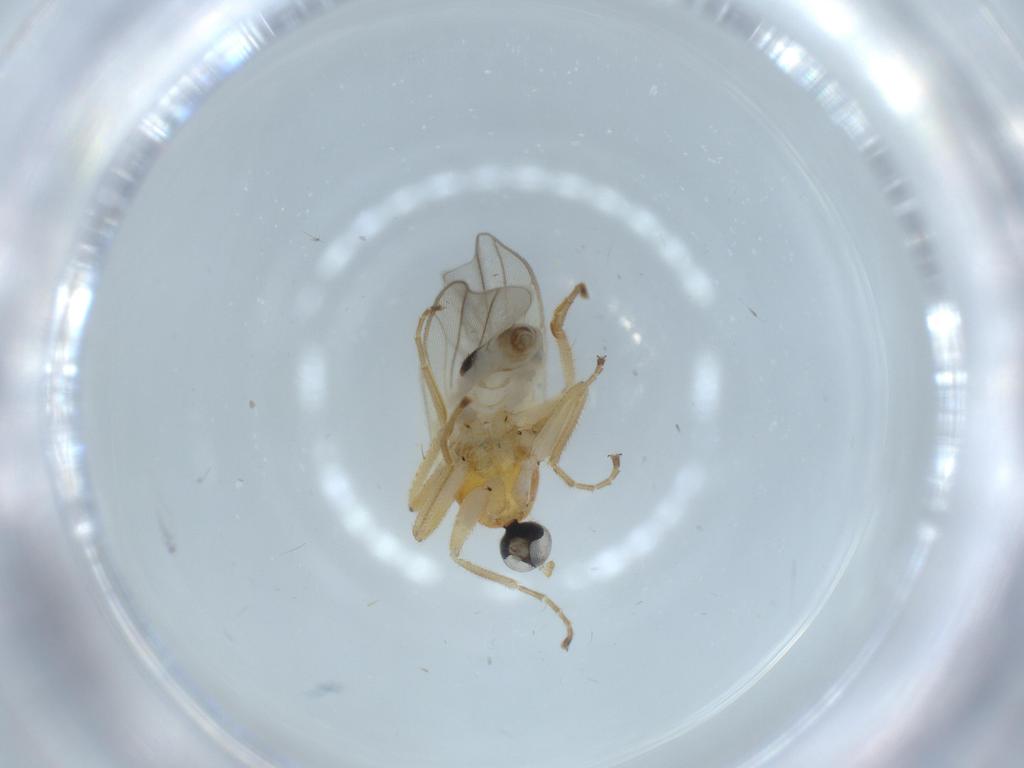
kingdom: Animalia
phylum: Arthropoda
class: Insecta
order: Diptera
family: Hybotidae
